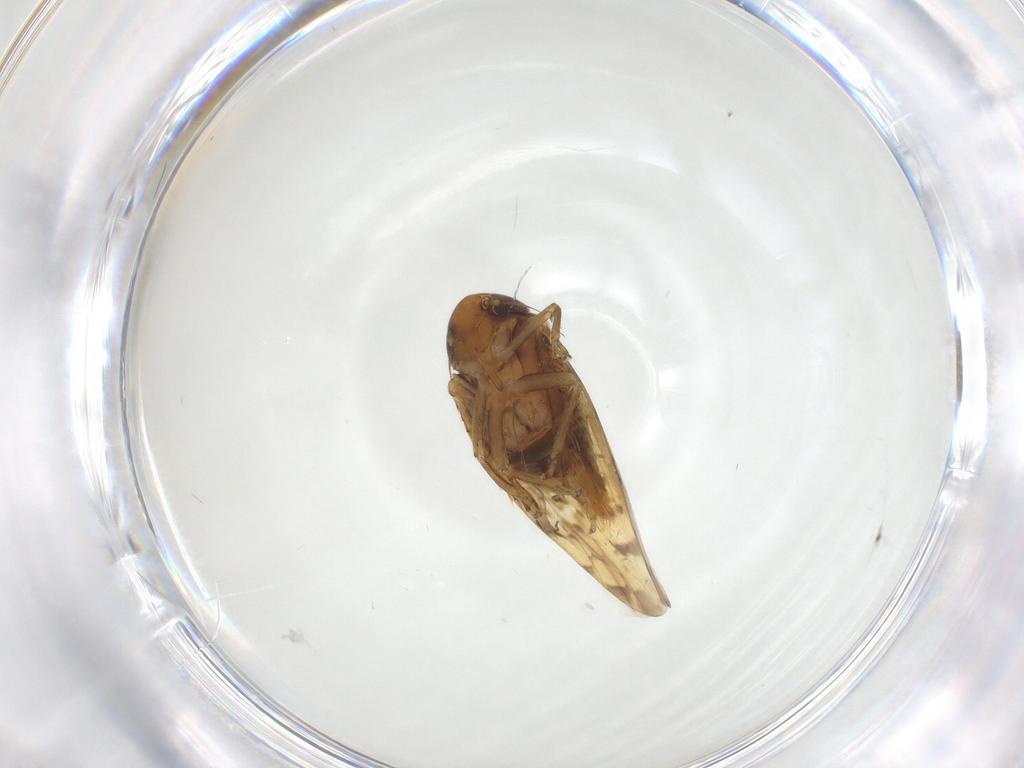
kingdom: Animalia
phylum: Arthropoda
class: Insecta
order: Hemiptera
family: Cicadellidae
